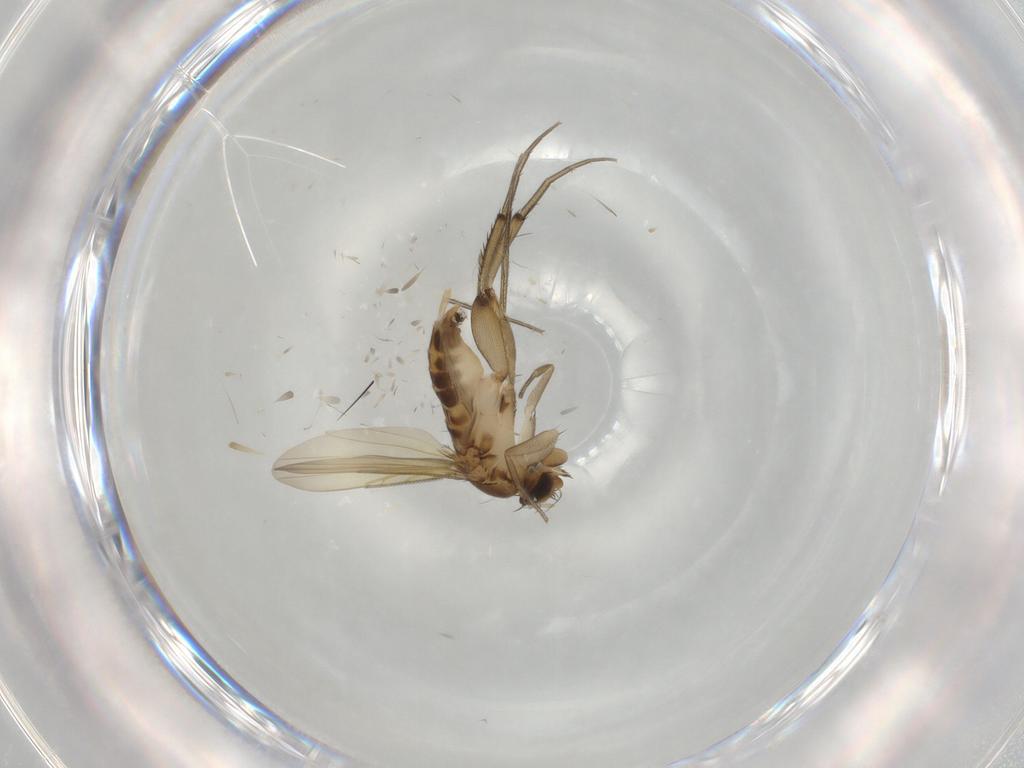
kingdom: Animalia
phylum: Arthropoda
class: Insecta
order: Diptera
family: Phoridae
